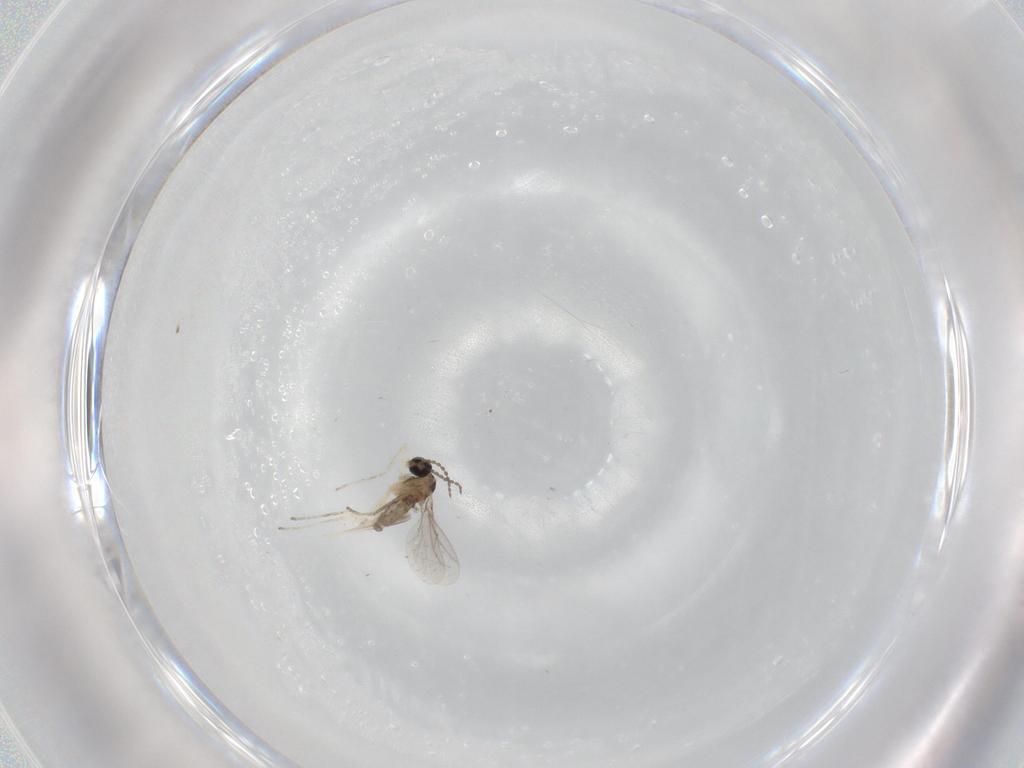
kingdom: Animalia
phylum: Arthropoda
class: Insecta
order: Diptera
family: Cecidomyiidae
